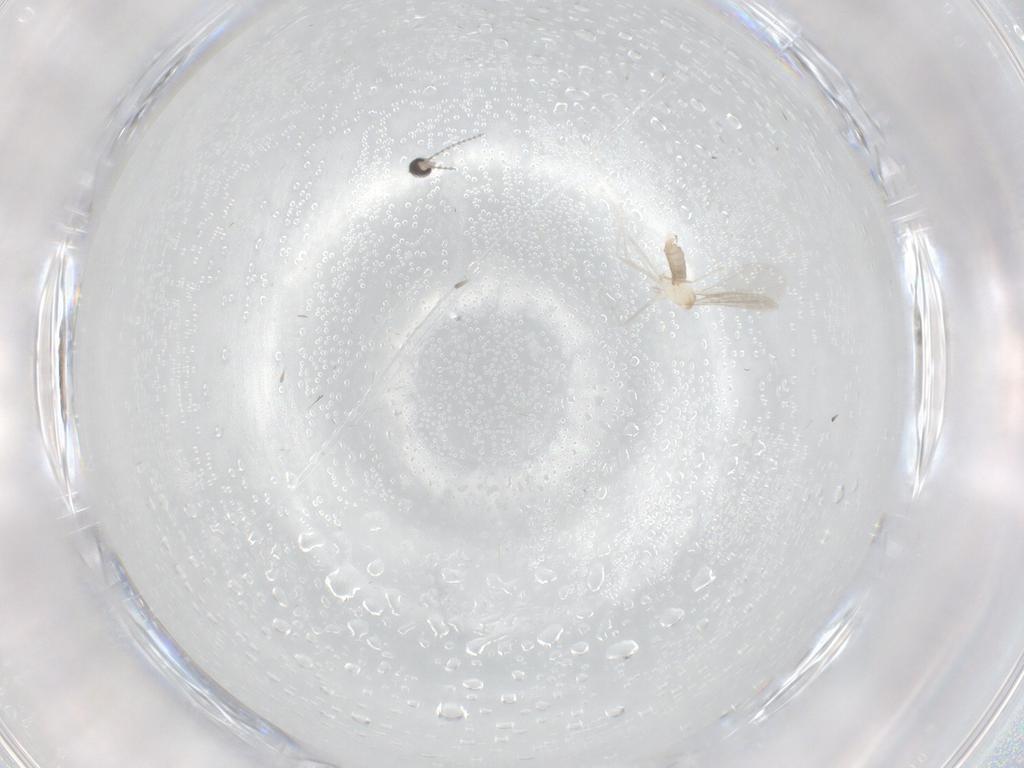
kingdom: Animalia
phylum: Arthropoda
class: Insecta
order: Diptera
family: Cecidomyiidae
